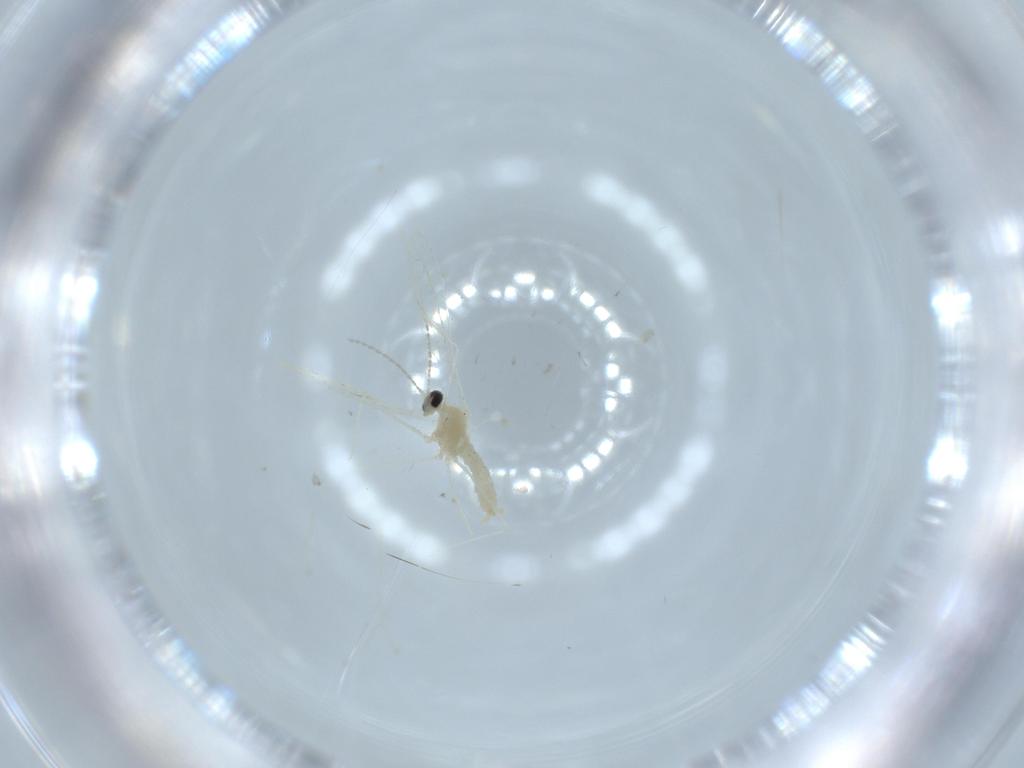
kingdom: Animalia
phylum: Arthropoda
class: Insecta
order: Diptera
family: Cecidomyiidae
